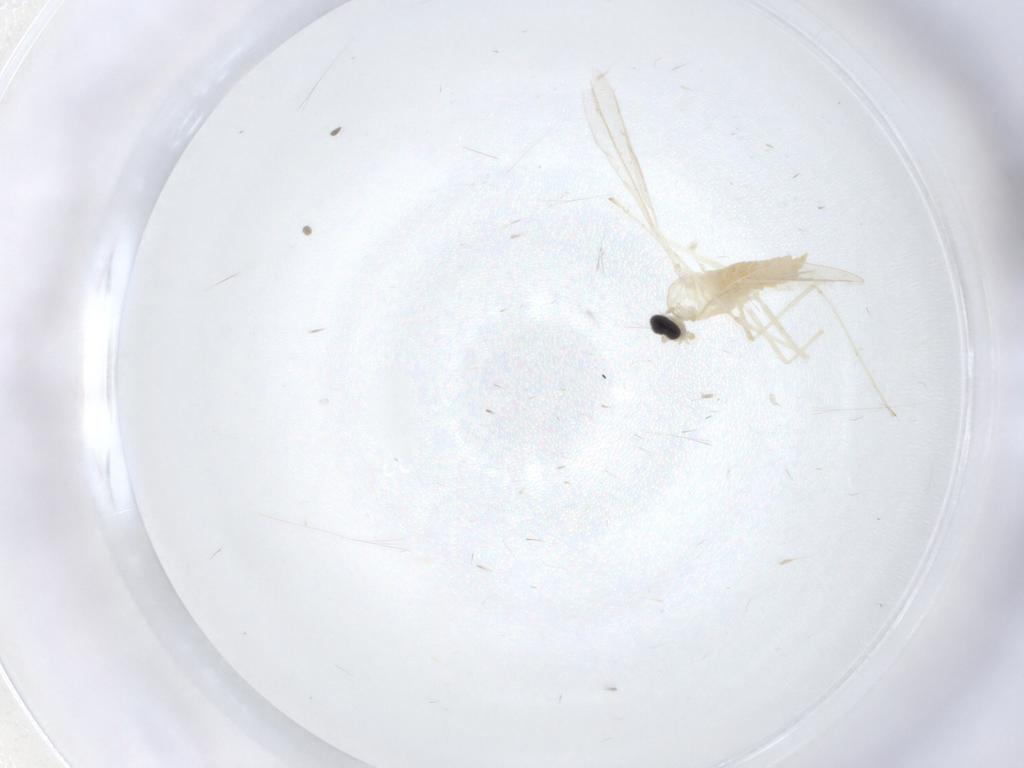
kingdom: Animalia
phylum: Arthropoda
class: Insecta
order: Diptera
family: Cecidomyiidae
